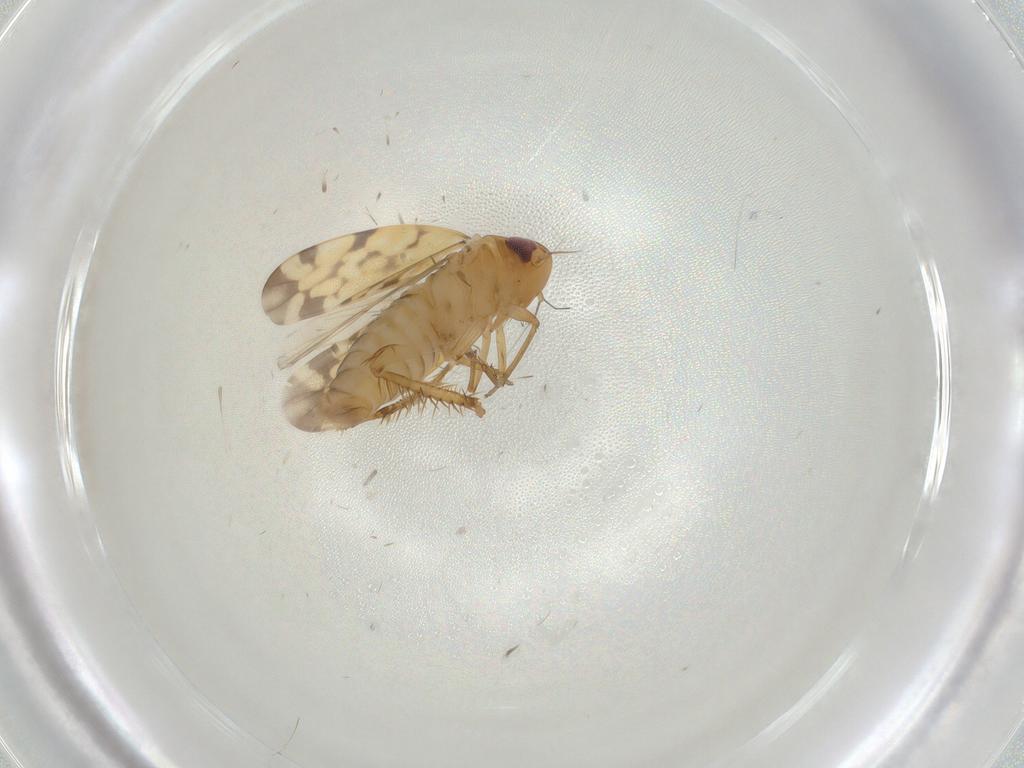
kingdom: Animalia
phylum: Arthropoda
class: Insecta
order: Hemiptera
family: Cicadellidae
